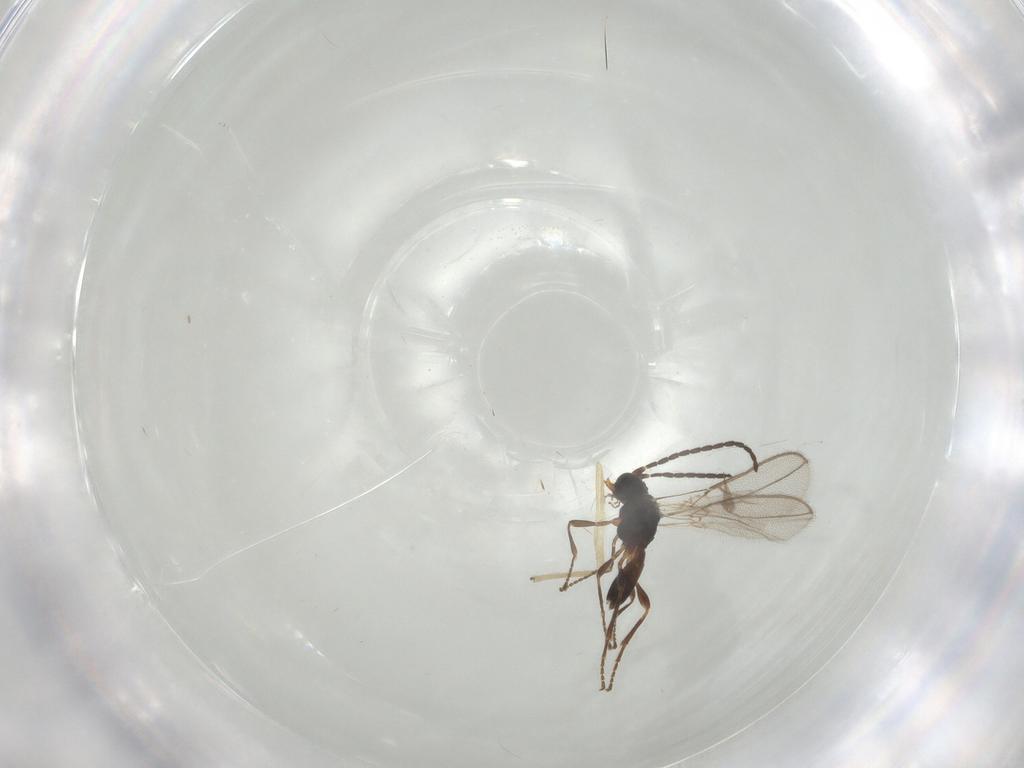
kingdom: Animalia
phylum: Arthropoda
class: Insecta
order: Hymenoptera
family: Braconidae
